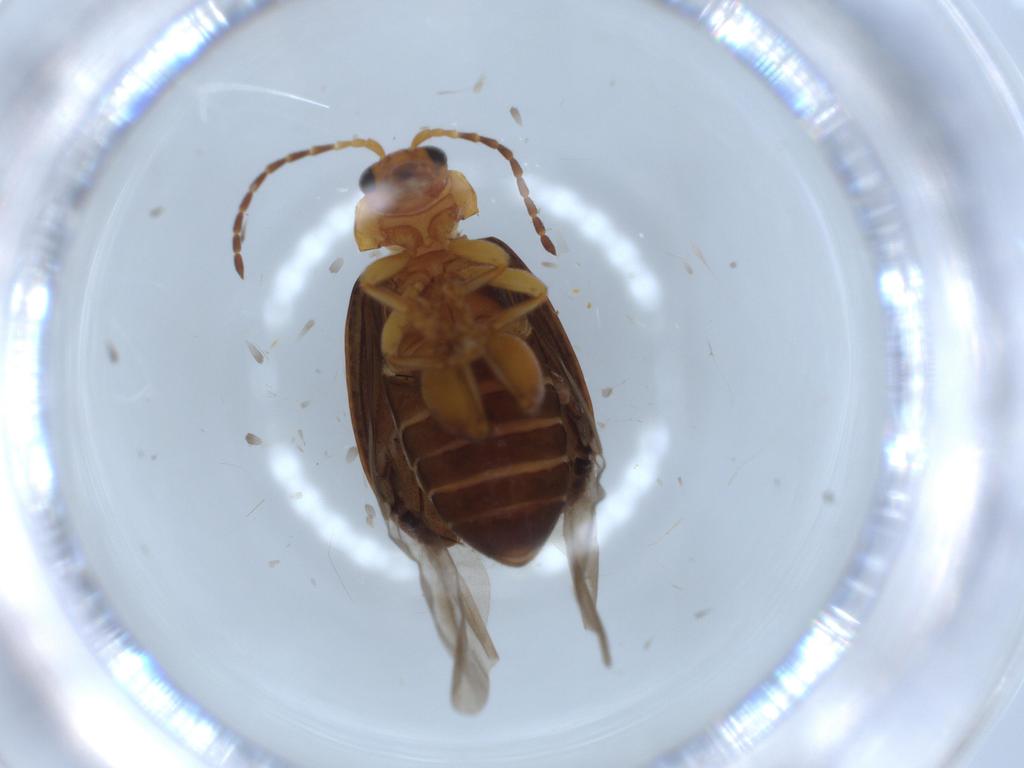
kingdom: Animalia
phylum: Arthropoda
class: Insecta
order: Coleoptera
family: Chrysomelidae
